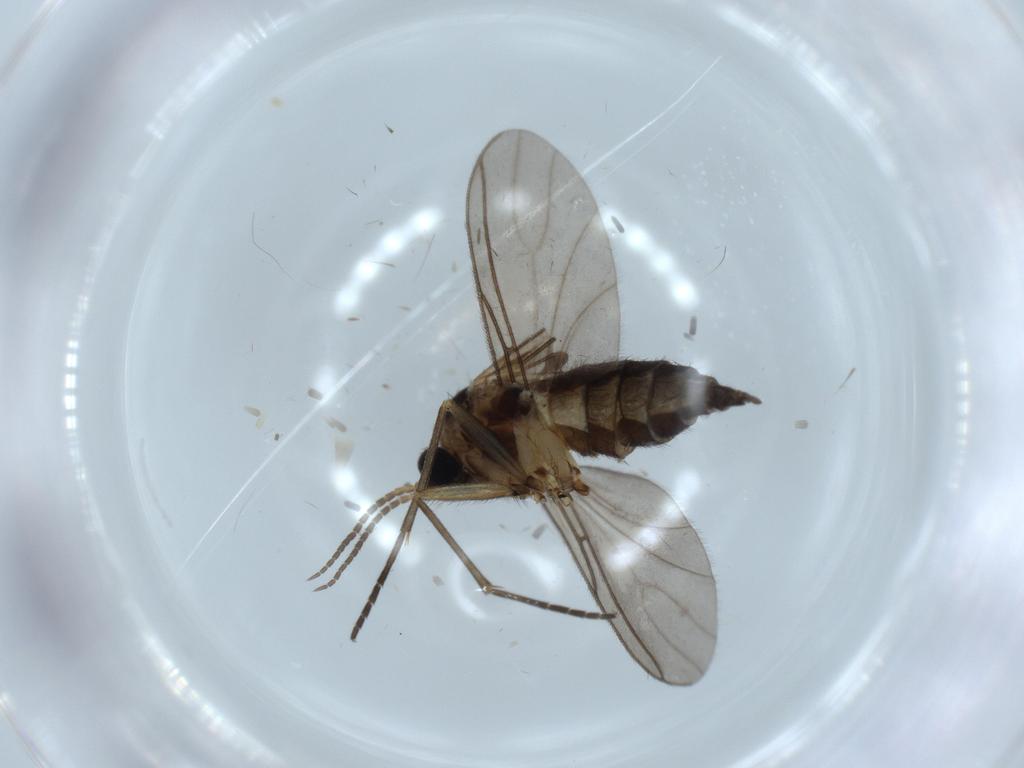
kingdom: Animalia
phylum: Arthropoda
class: Insecta
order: Diptera
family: Sciaridae
